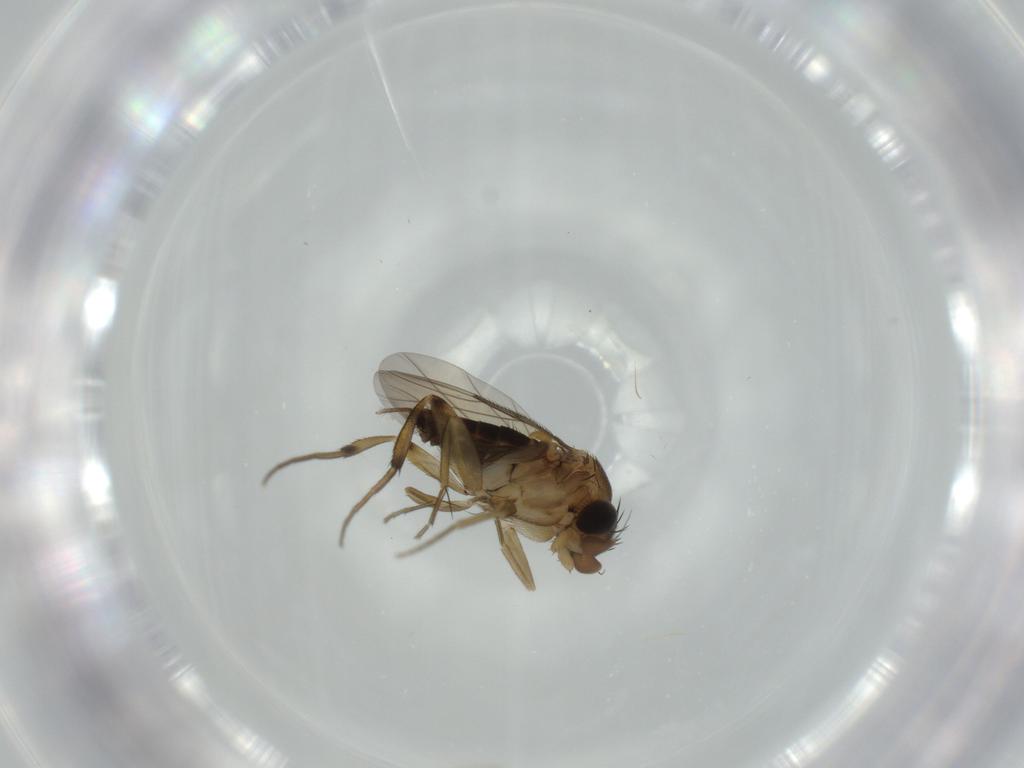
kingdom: Animalia
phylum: Arthropoda
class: Insecta
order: Diptera
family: Phoridae
